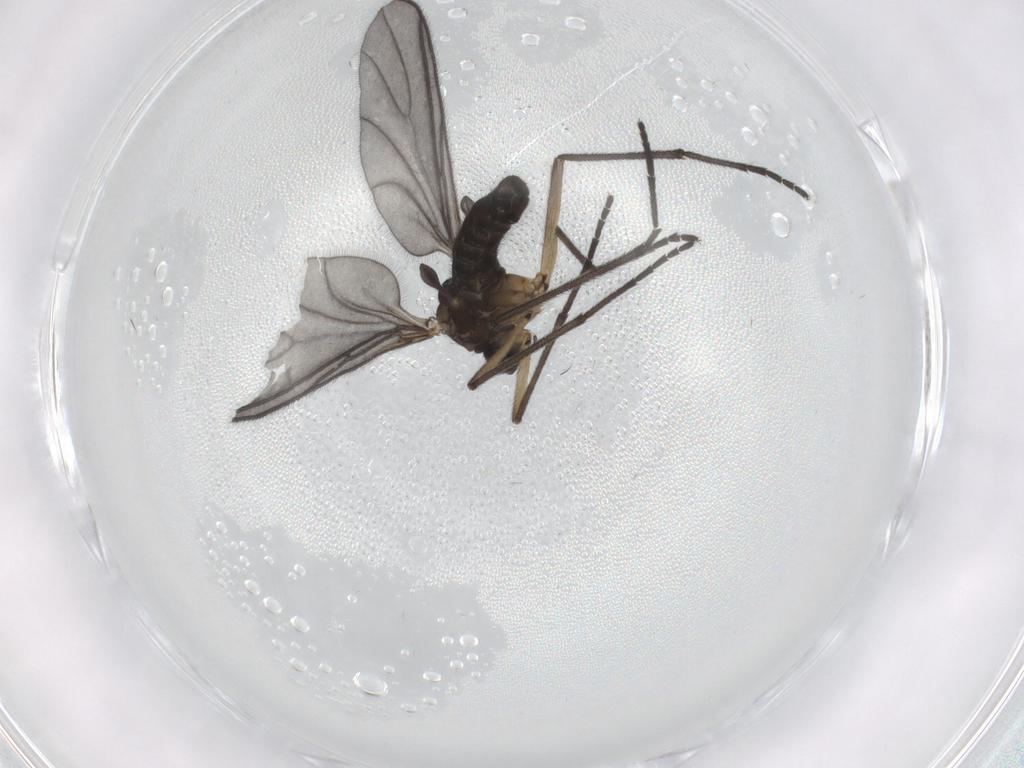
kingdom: Animalia
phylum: Arthropoda
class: Insecta
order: Diptera
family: Sciaridae
